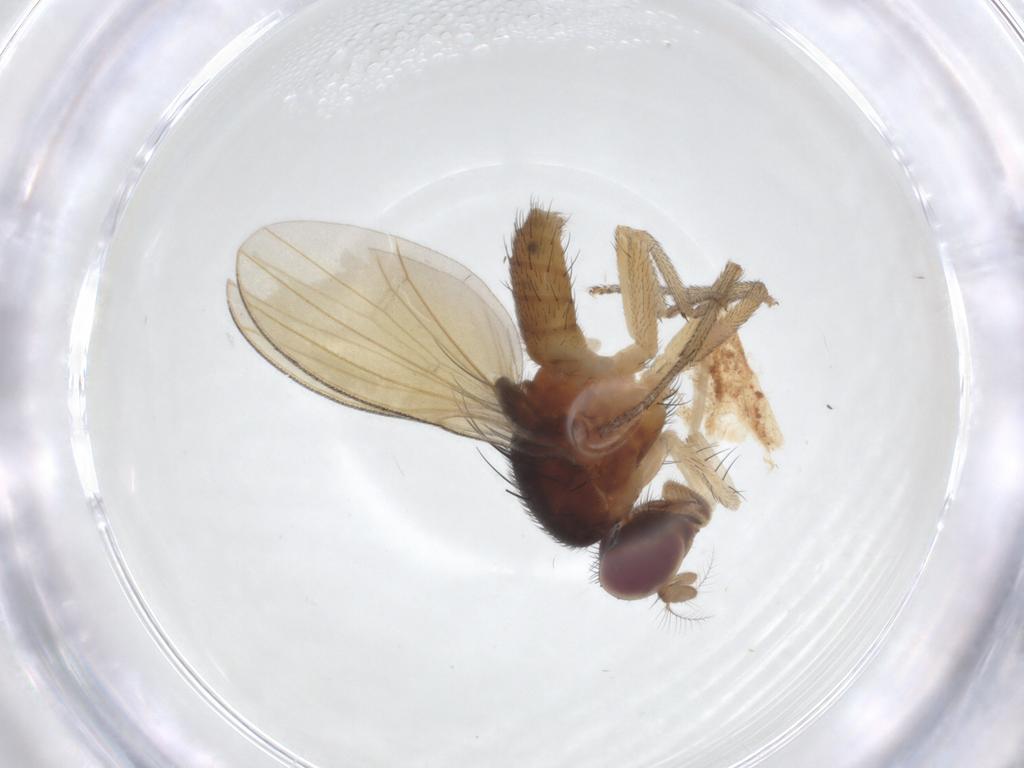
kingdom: Animalia
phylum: Arthropoda
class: Insecta
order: Diptera
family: Lauxaniidae
